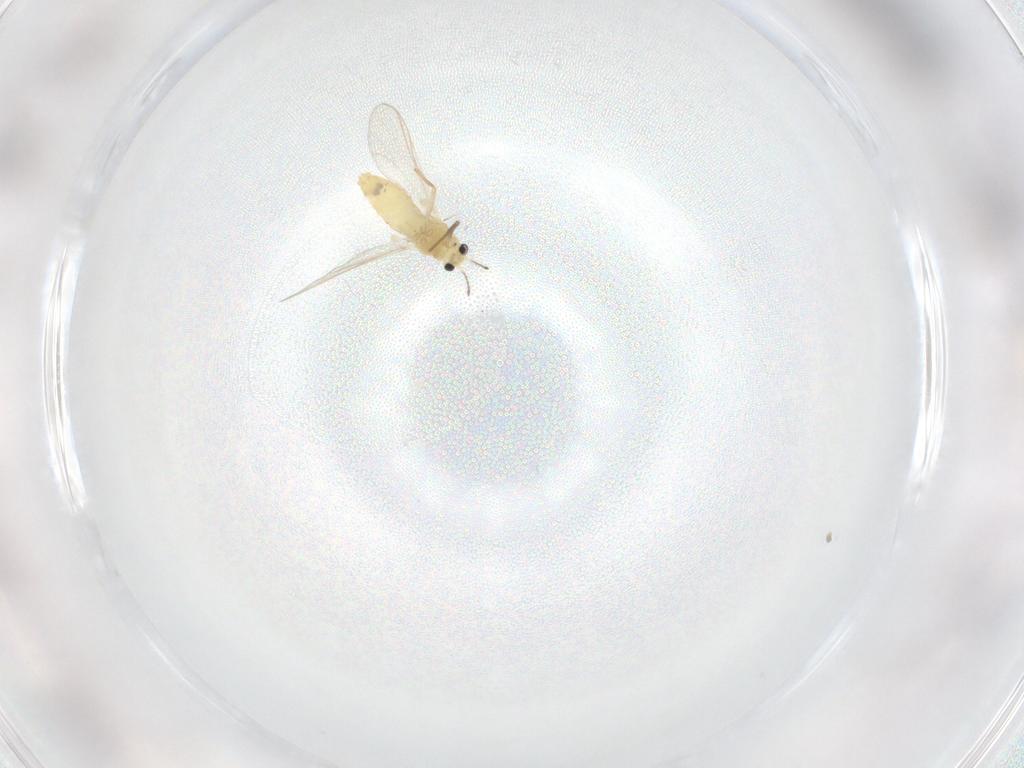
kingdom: Animalia
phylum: Arthropoda
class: Insecta
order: Diptera
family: Chironomidae
